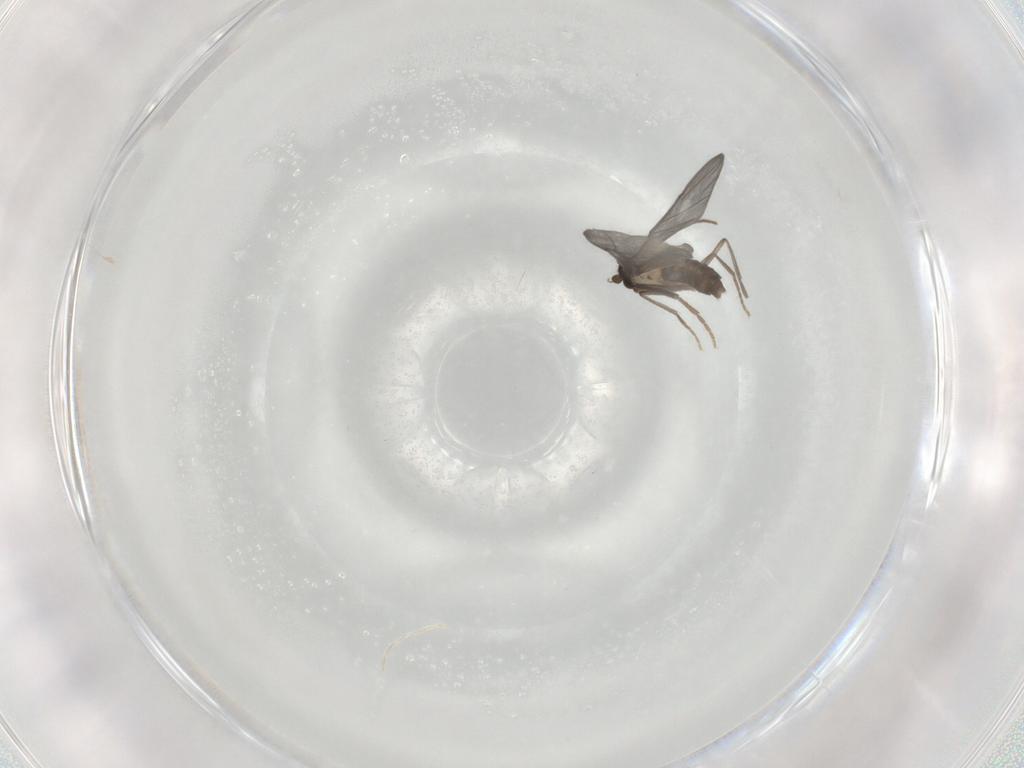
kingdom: Animalia
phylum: Arthropoda
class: Insecta
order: Diptera
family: Phoridae
